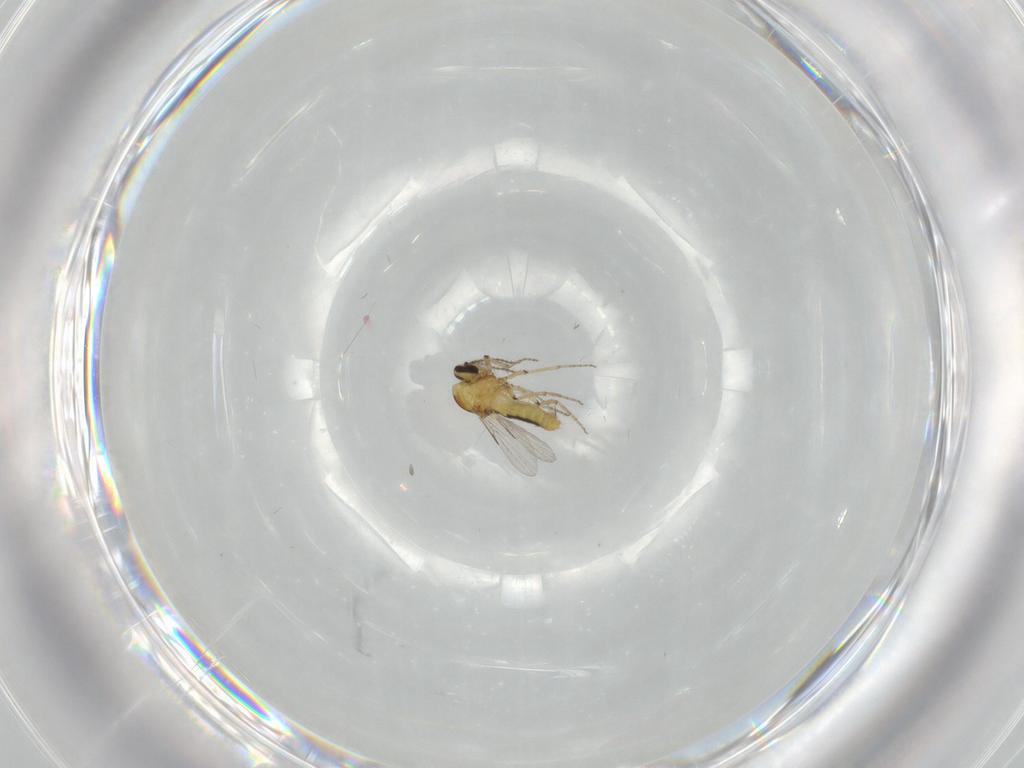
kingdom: Animalia
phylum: Arthropoda
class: Insecta
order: Diptera
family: Ceratopogonidae
